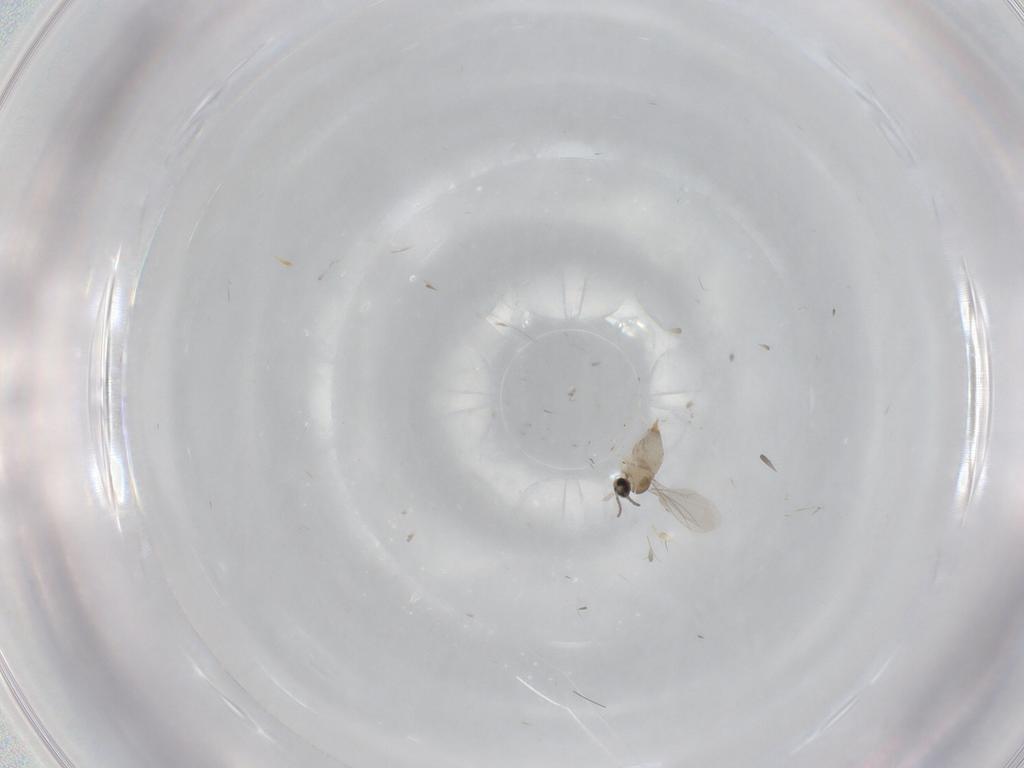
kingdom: Animalia
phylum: Arthropoda
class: Insecta
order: Diptera
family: Cecidomyiidae
